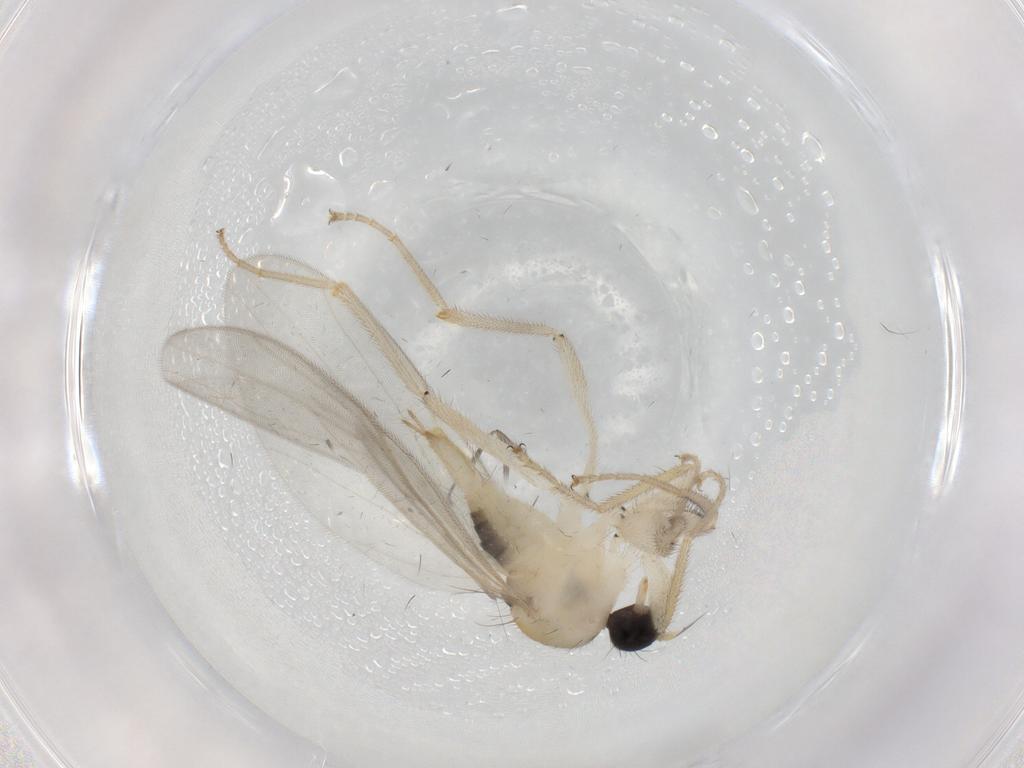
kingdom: Animalia
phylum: Arthropoda
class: Insecta
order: Diptera
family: Hybotidae
